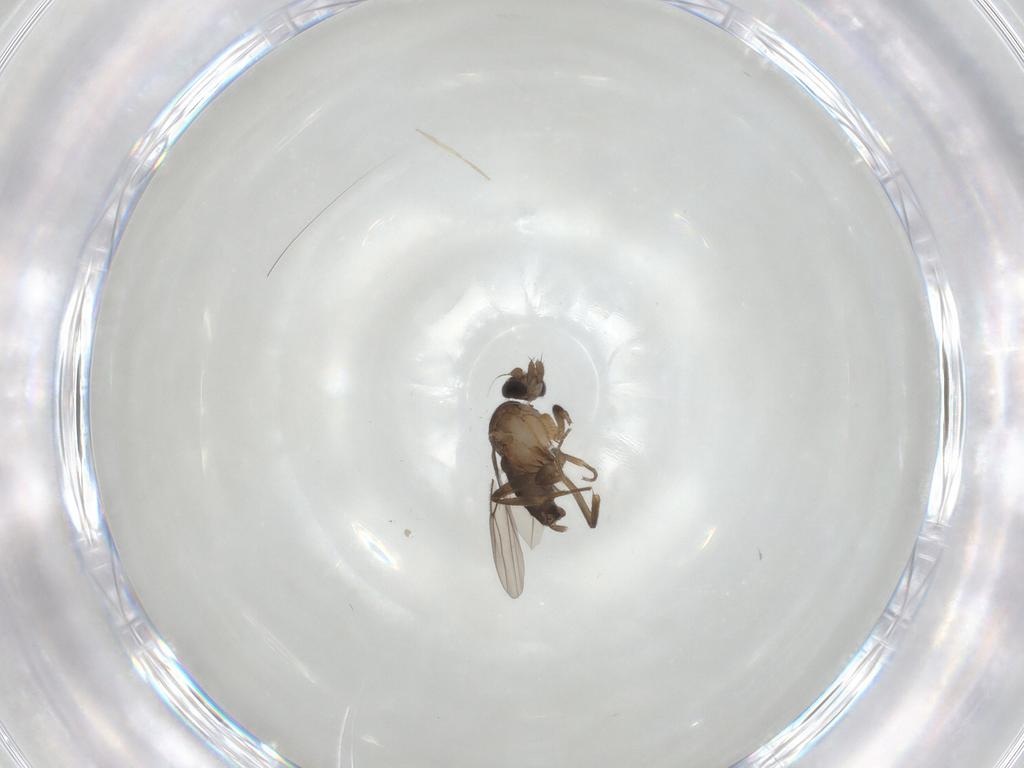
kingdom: Animalia
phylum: Arthropoda
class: Insecta
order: Diptera
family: Phoridae
